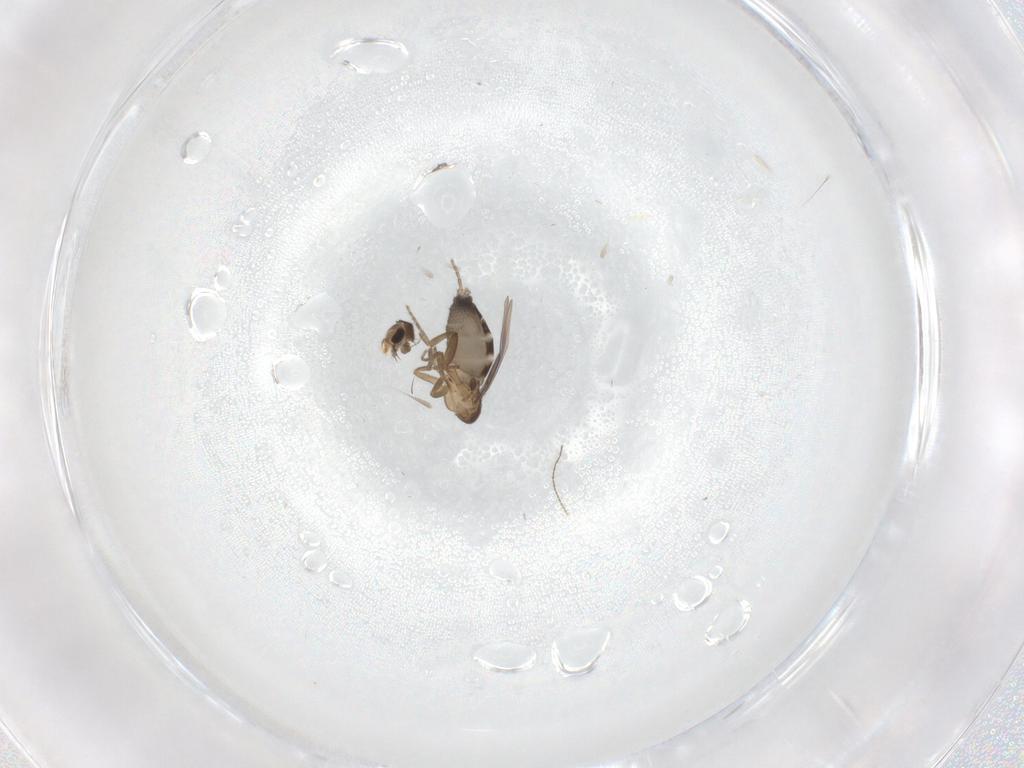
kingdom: Animalia
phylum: Arthropoda
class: Insecta
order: Diptera
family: Phoridae
